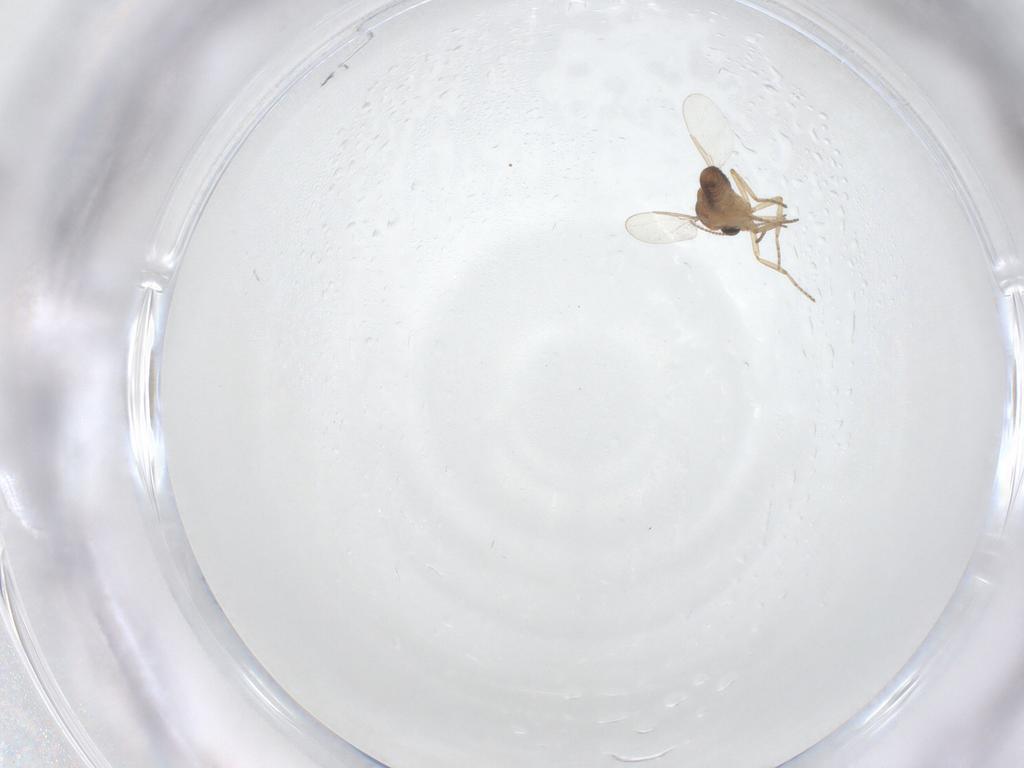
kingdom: Animalia
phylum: Arthropoda
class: Insecta
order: Diptera
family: Ceratopogonidae
